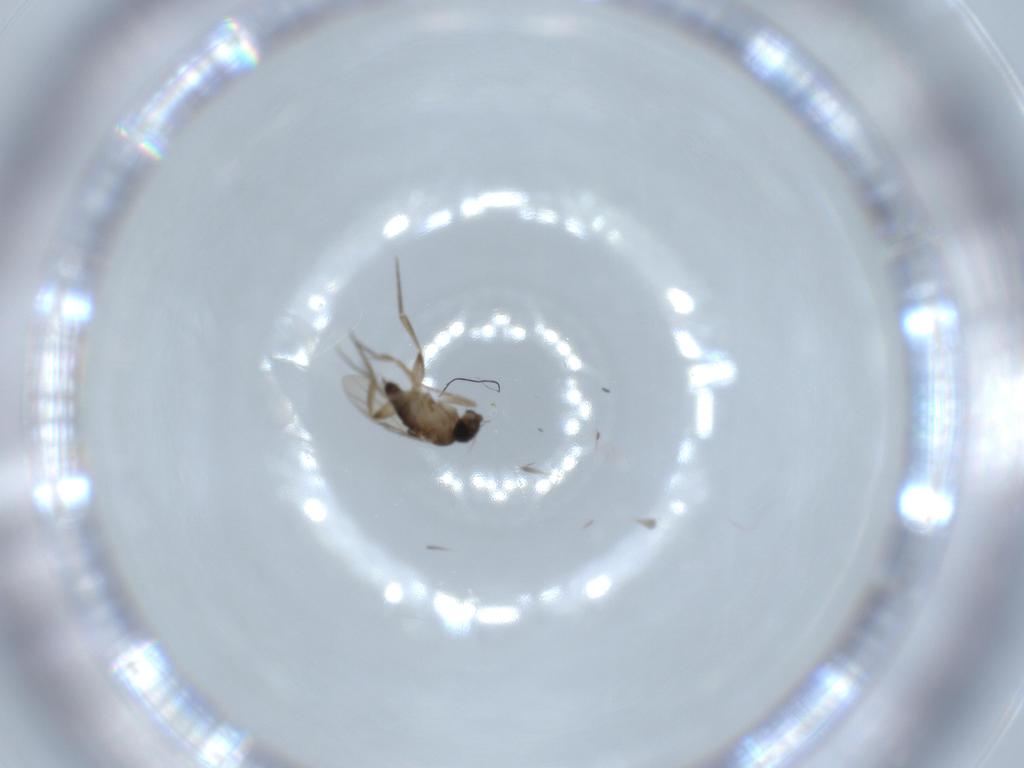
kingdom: Animalia
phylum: Arthropoda
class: Insecta
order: Diptera
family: Phoridae
